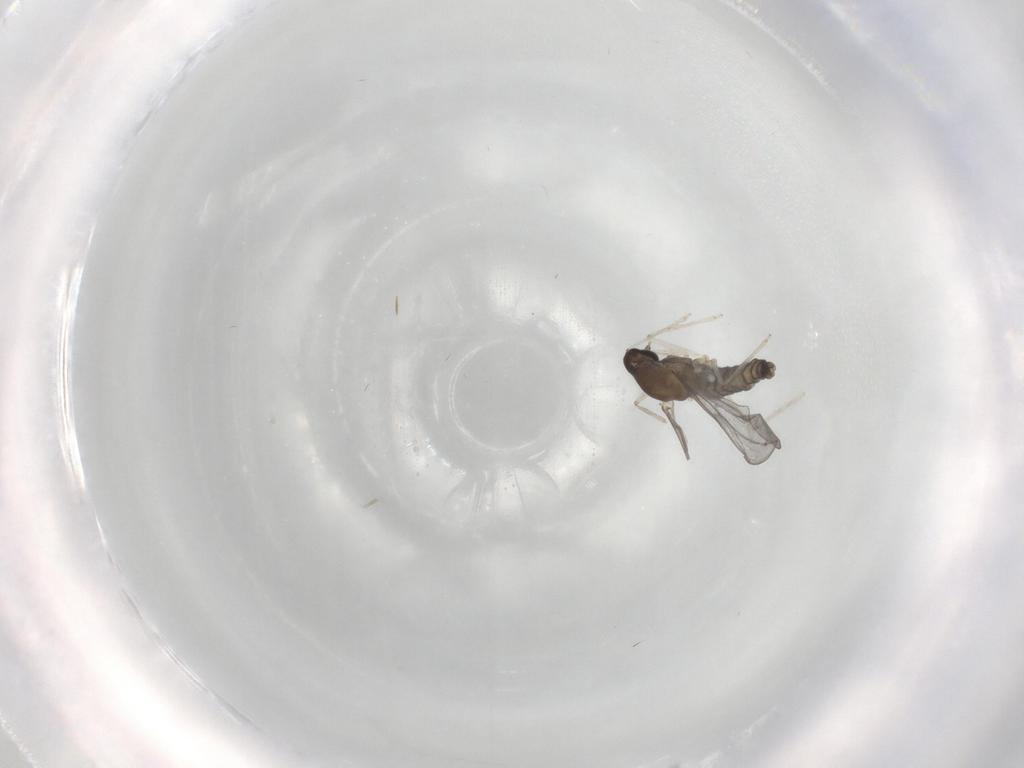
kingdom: Animalia
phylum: Arthropoda
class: Insecta
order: Diptera
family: Cecidomyiidae
